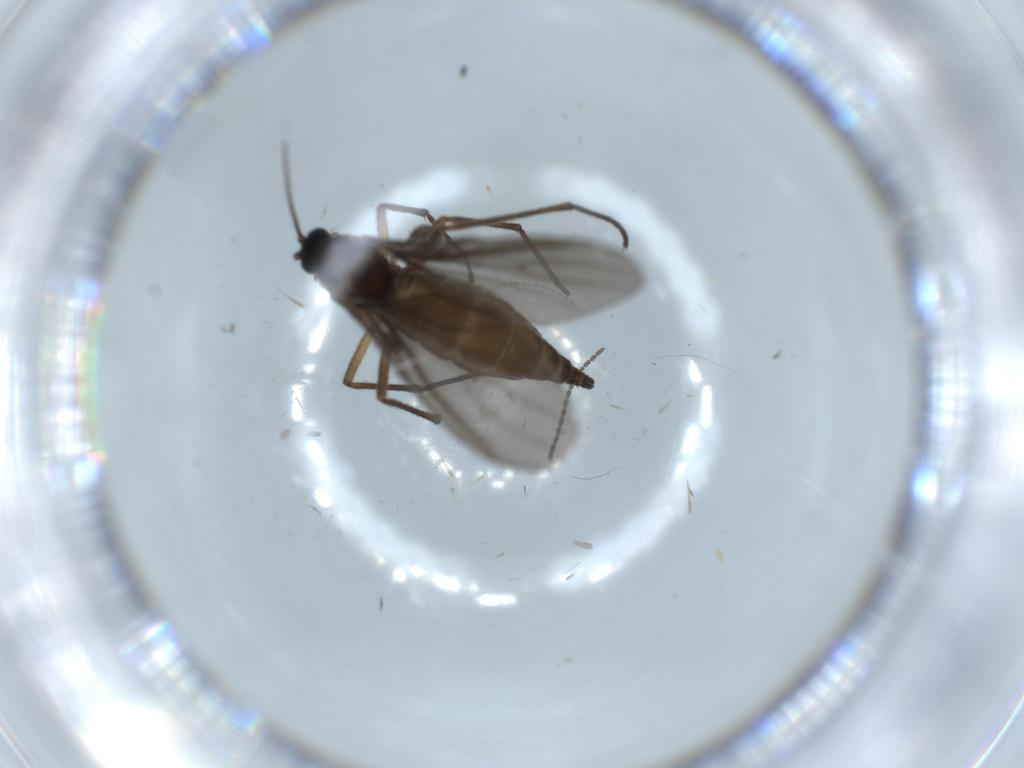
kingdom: Animalia
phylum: Arthropoda
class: Insecta
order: Diptera
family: Sciaridae
